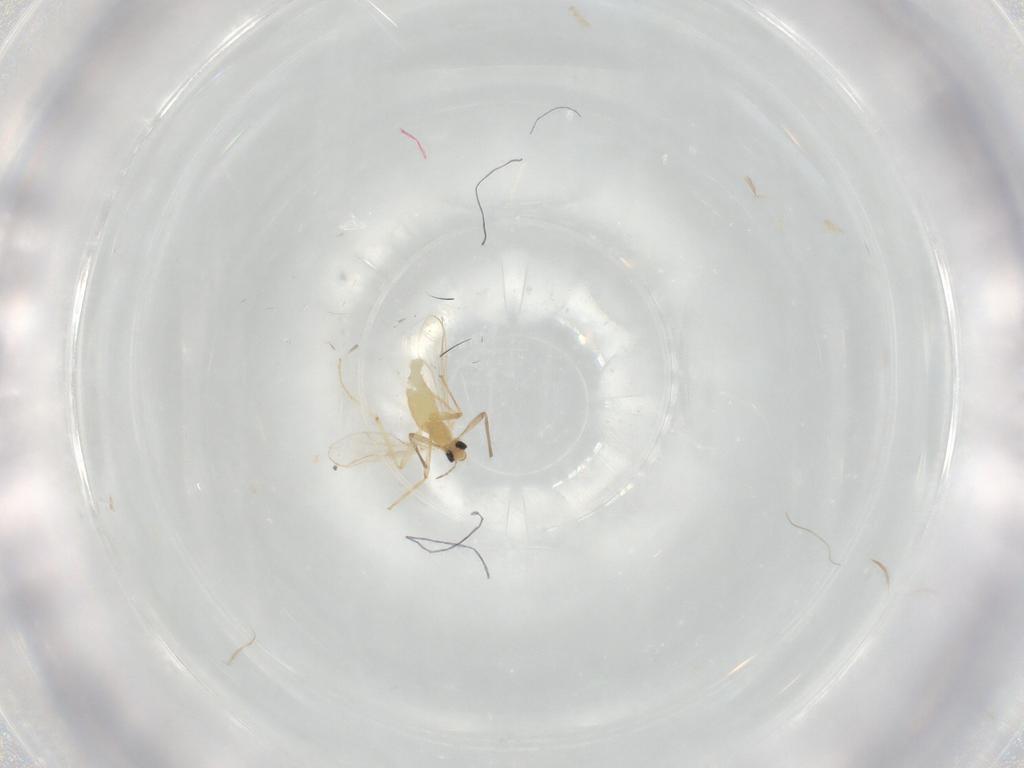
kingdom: Animalia
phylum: Arthropoda
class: Insecta
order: Diptera
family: Chironomidae
